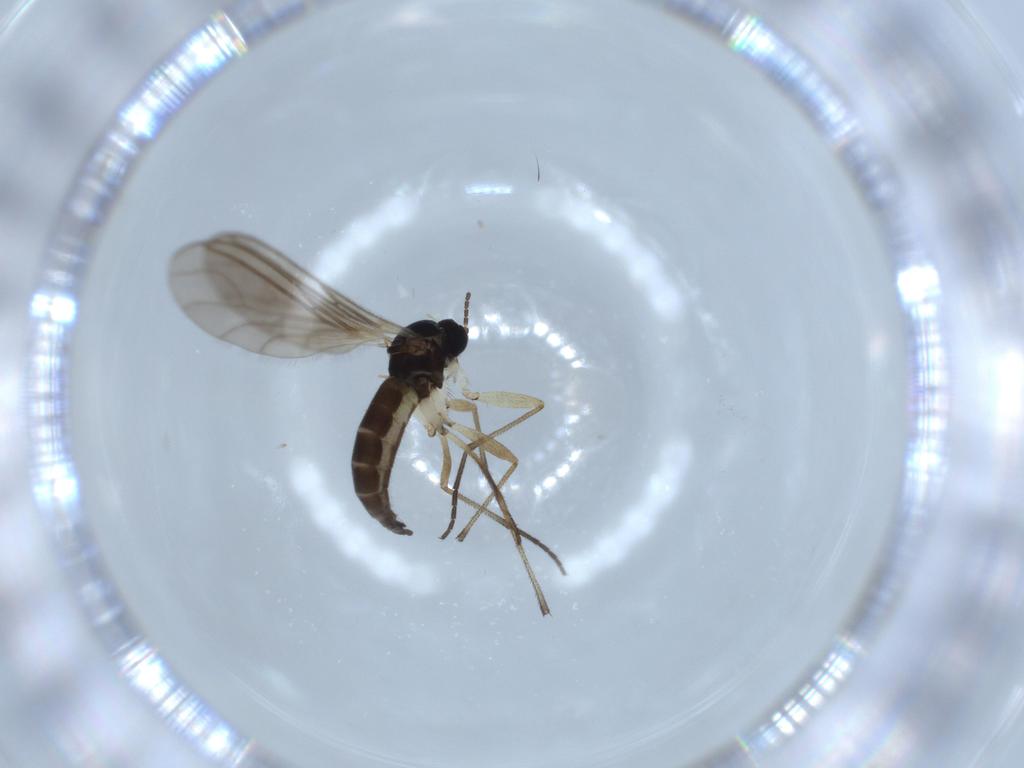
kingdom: Animalia
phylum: Arthropoda
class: Insecta
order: Diptera
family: Sciaridae
